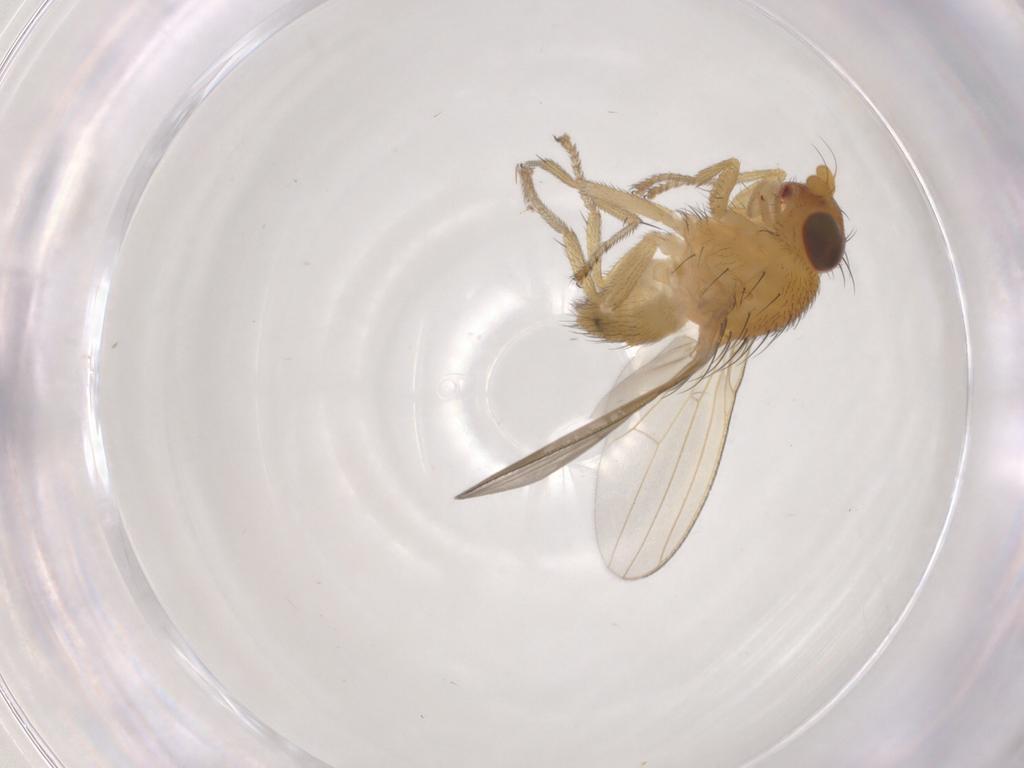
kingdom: Animalia
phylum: Arthropoda
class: Insecta
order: Diptera
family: Lauxaniidae
